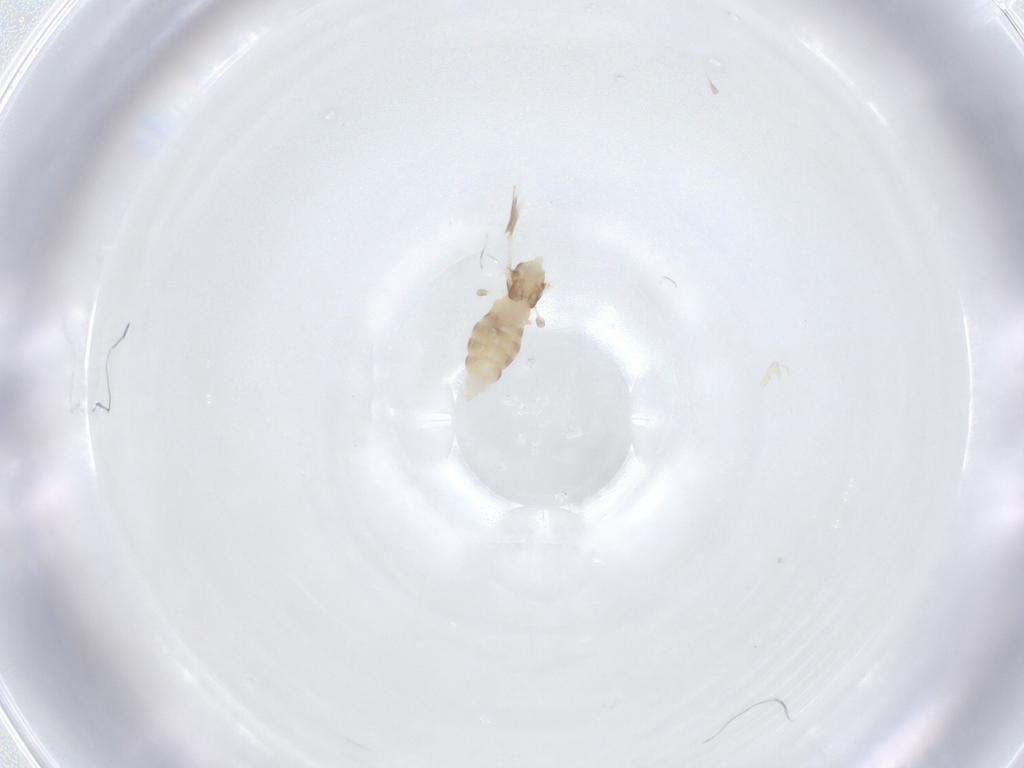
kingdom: Animalia
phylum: Arthropoda
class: Insecta
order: Diptera
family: Cecidomyiidae
